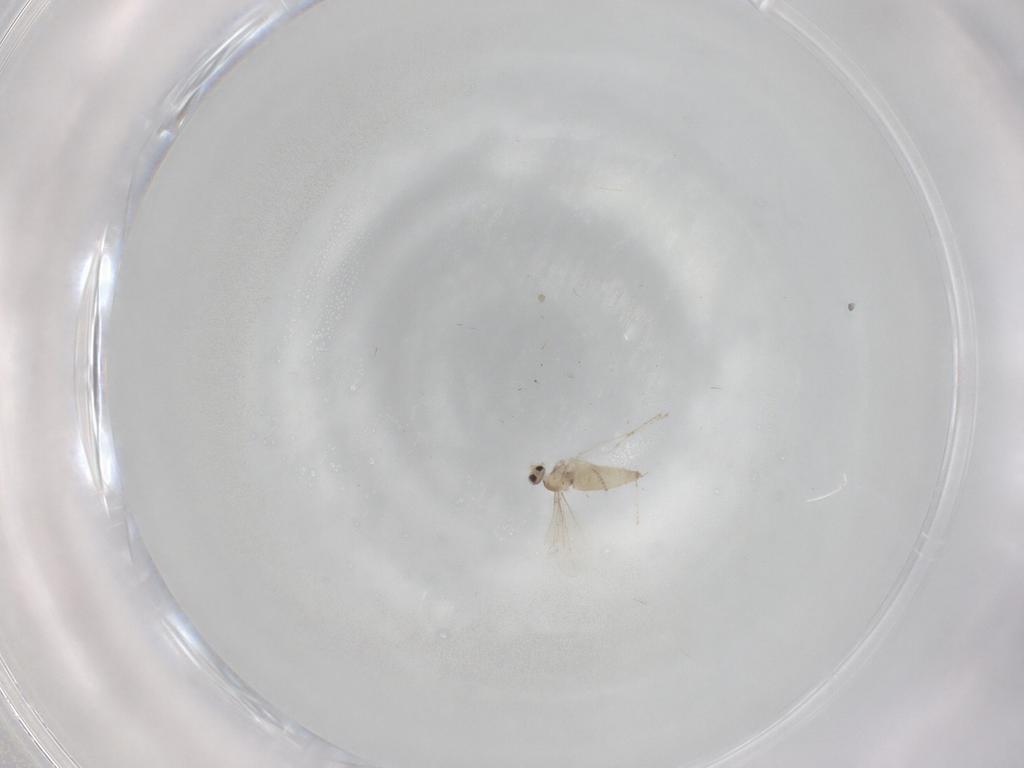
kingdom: Animalia
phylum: Arthropoda
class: Insecta
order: Diptera
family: Cecidomyiidae
